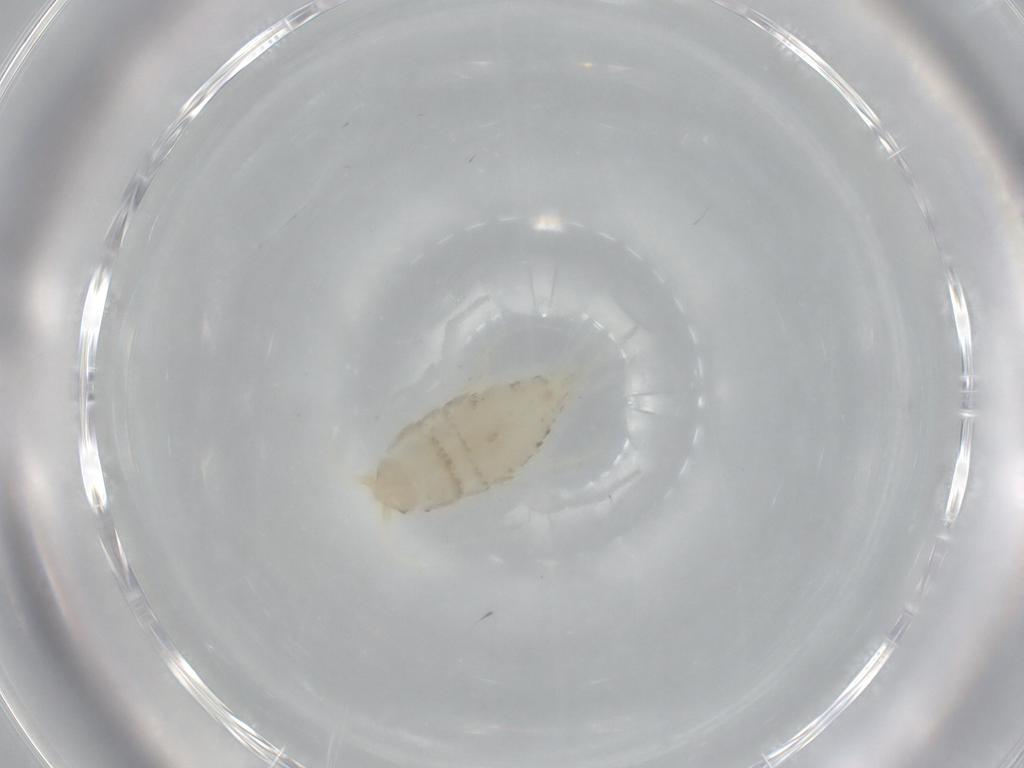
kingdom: Animalia
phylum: Arthropoda
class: Insecta
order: Zygentoma
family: Nicoletiidae
